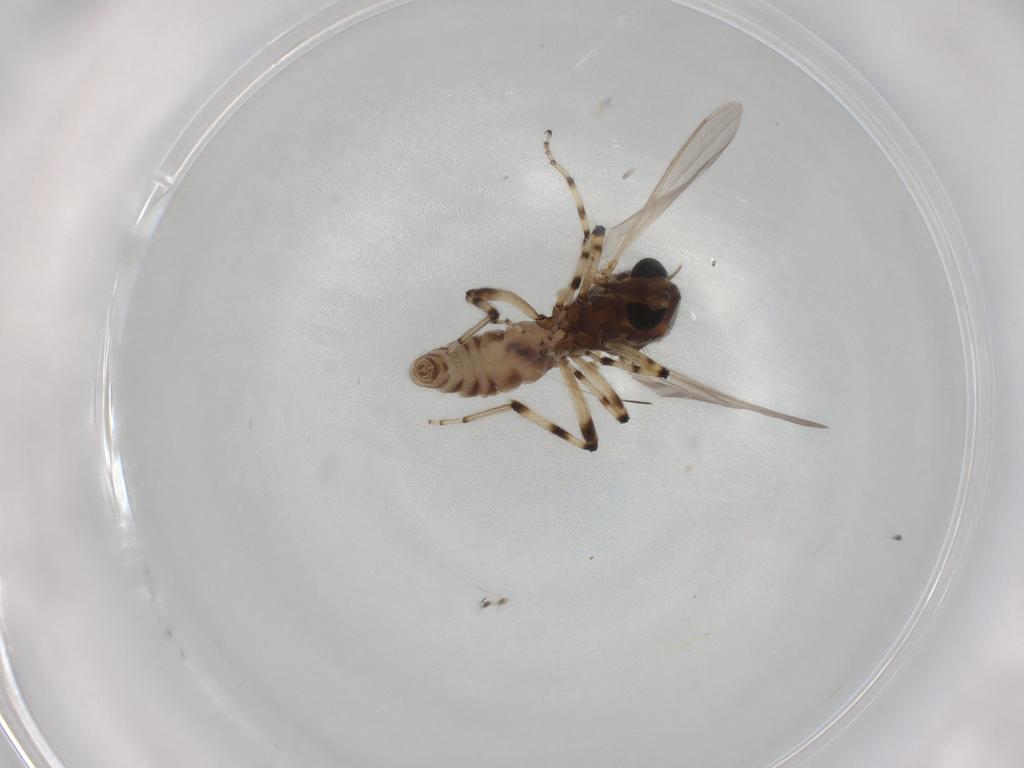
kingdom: Animalia
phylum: Arthropoda
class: Insecta
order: Diptera
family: Ceratopogonidae
